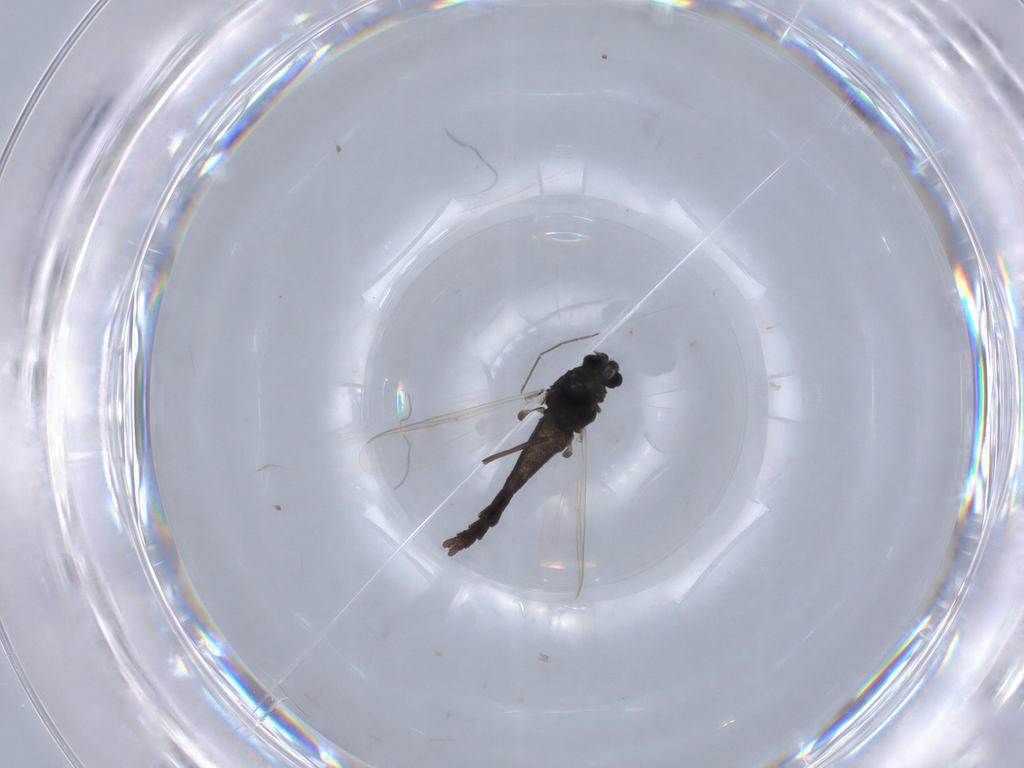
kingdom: Animalia
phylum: Arthropoda
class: Insecta
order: Diptera
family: Chironomidae
